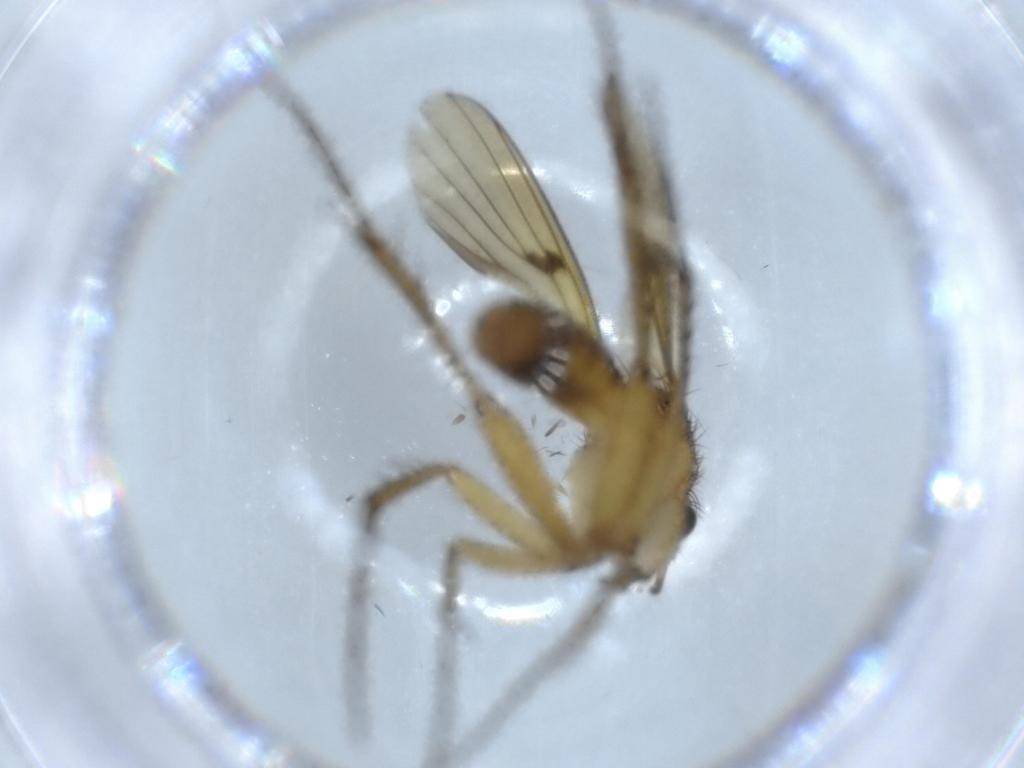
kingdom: Animalia
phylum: Arthropoda
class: Insecta
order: Diptera
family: Chironomidae
